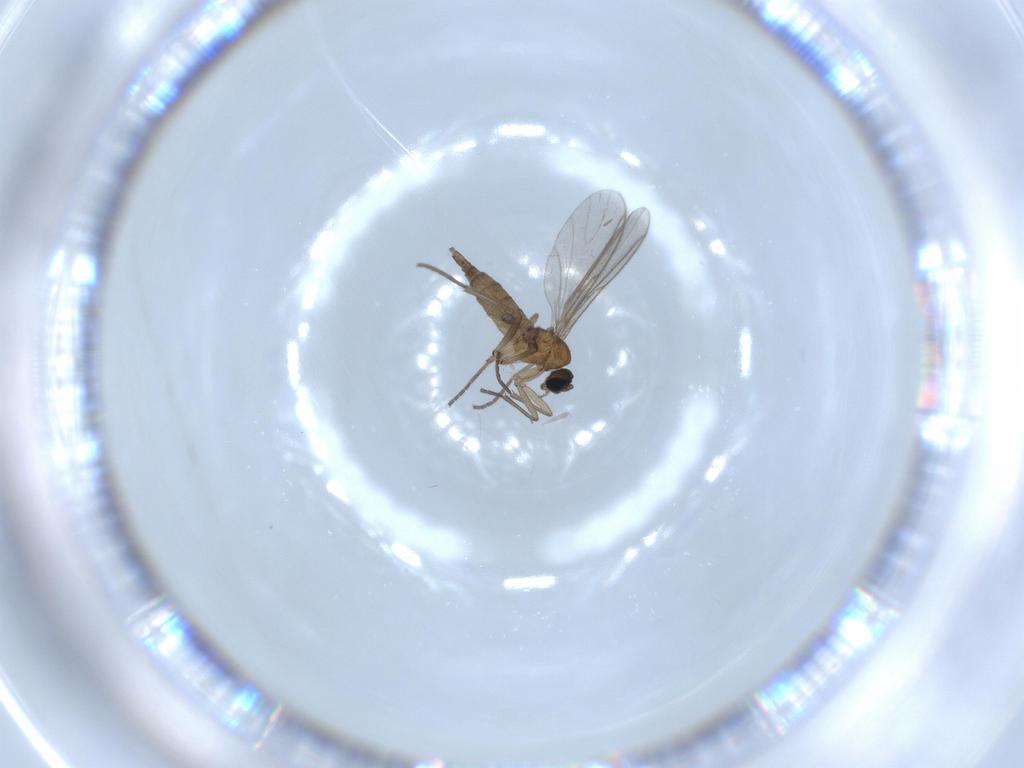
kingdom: Animalia
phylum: Arthropoda
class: Insecta
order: Diptera
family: Sciaridae
